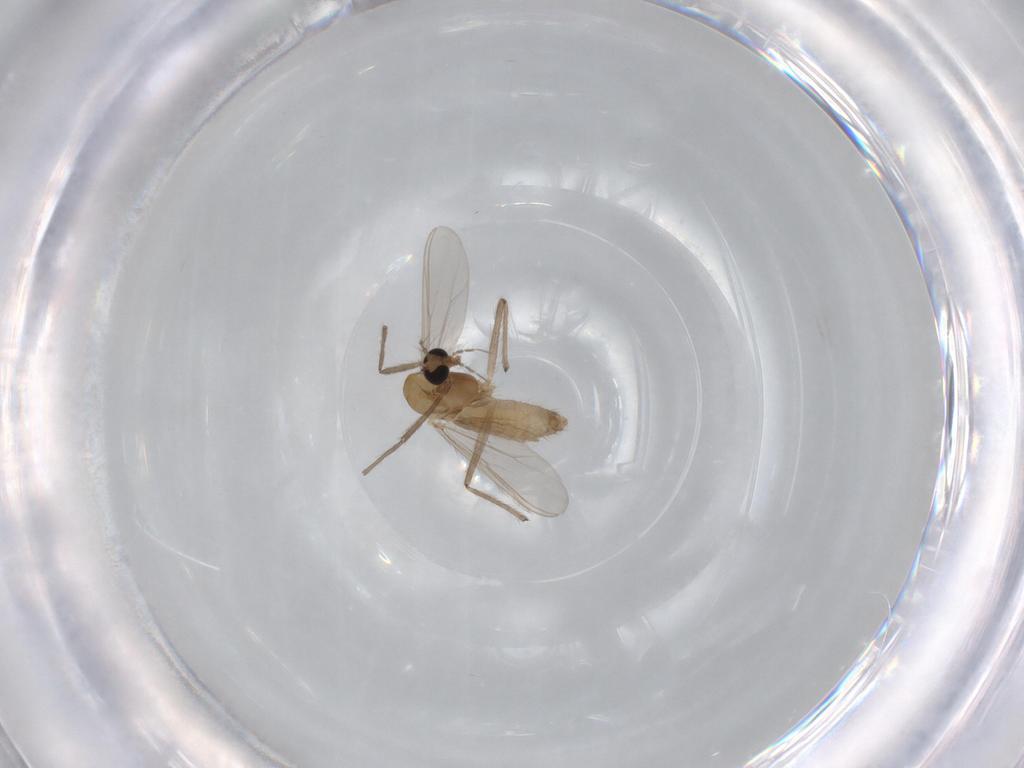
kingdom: Animalia
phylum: Arthropoda
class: Insecta
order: Diptera
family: Chironomidae
